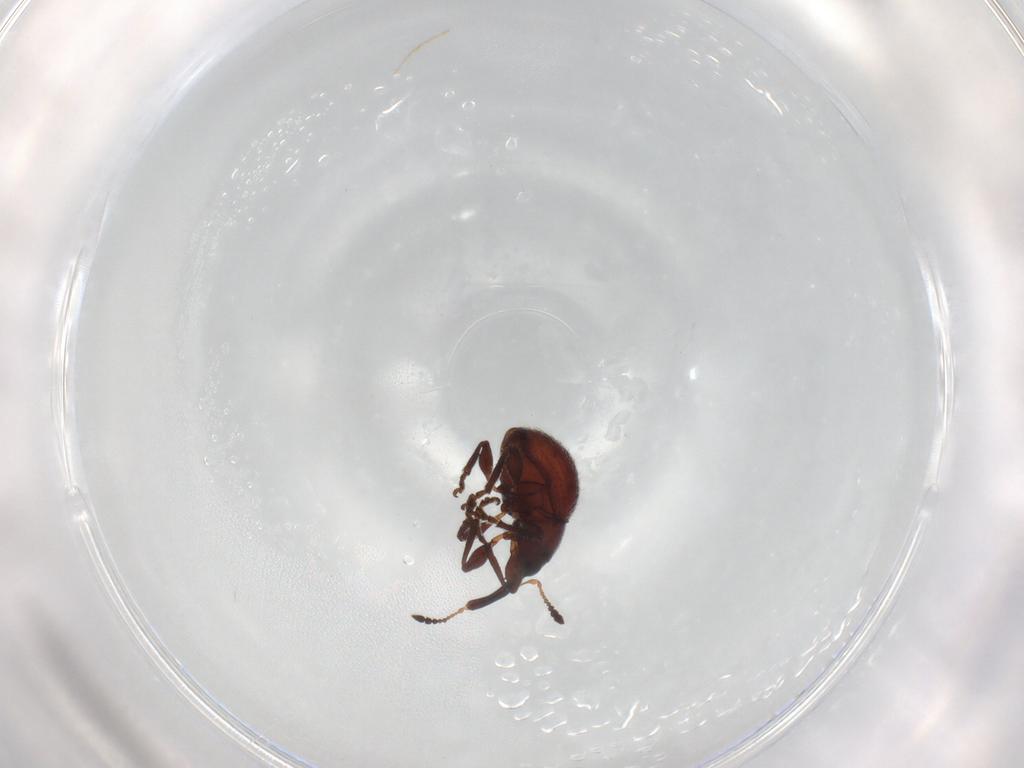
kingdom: Animalia
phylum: Arthropoda
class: Insecta
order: Coleoptera
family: Brentidae
